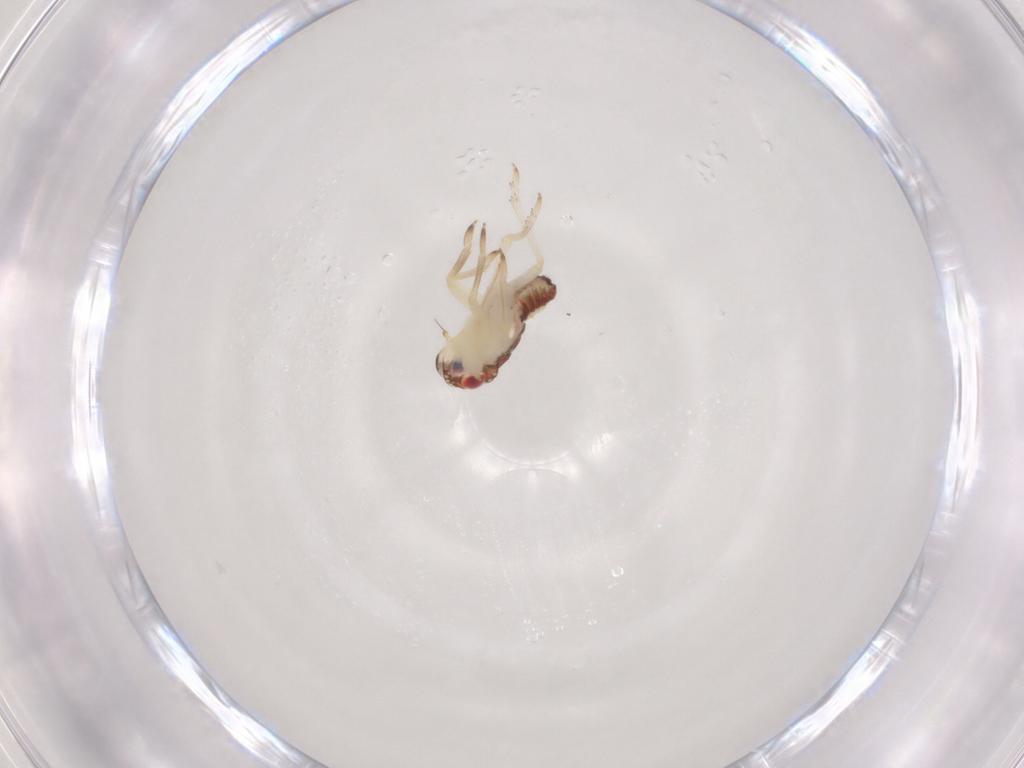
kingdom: Animalia
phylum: Arthropoda
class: Insecta
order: Hemiptera
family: Tropiduchidae
